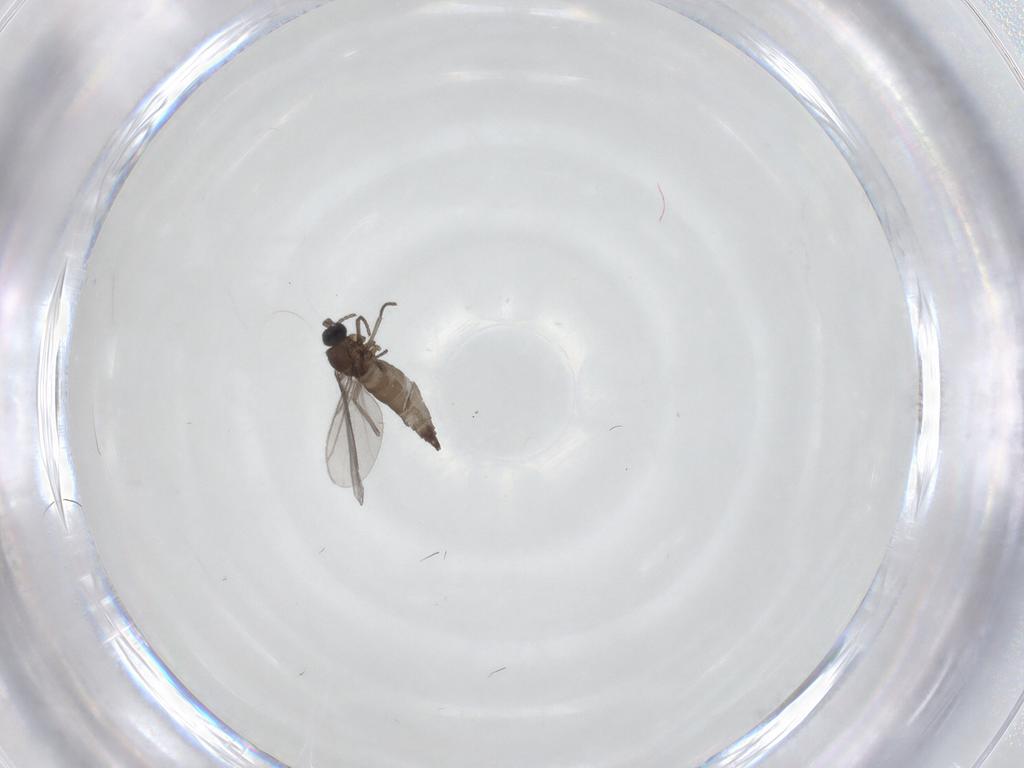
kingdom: Animalia
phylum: Arthropoda
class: Insecta
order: Diptera
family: Sciaridae
